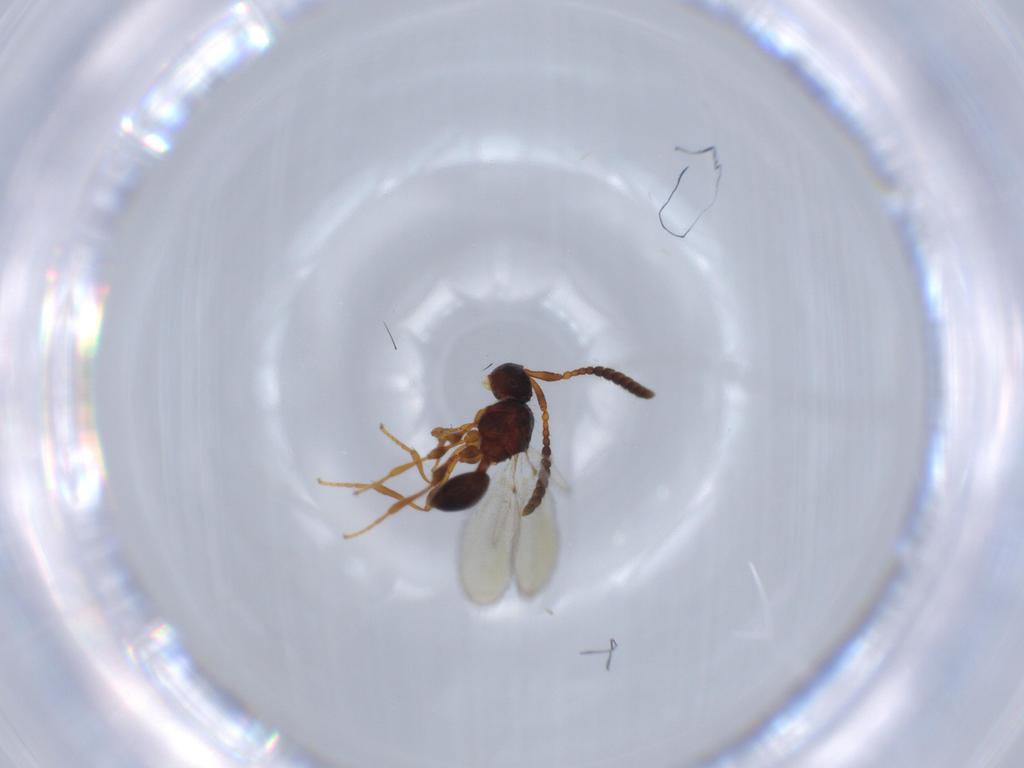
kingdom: Animalia
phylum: Arthropoda
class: Insecta
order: Hymenoptera
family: Diapriidae
